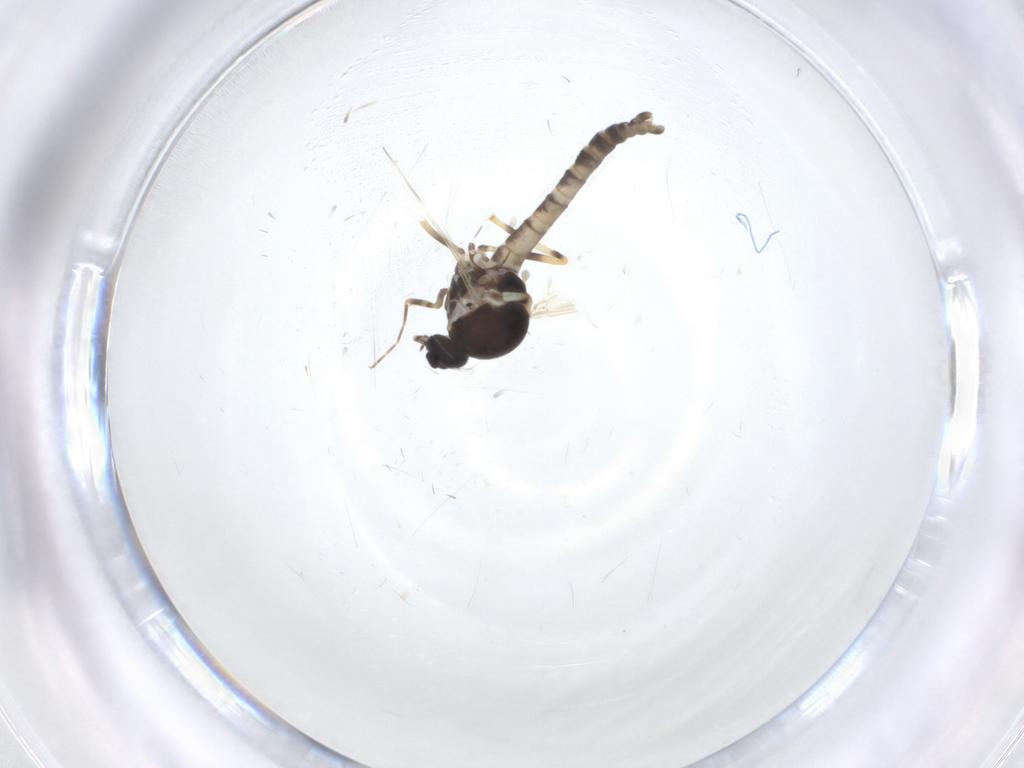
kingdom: Animalia
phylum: Arthropoda
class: Insecta
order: Diptera
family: Ceratopogonidae
